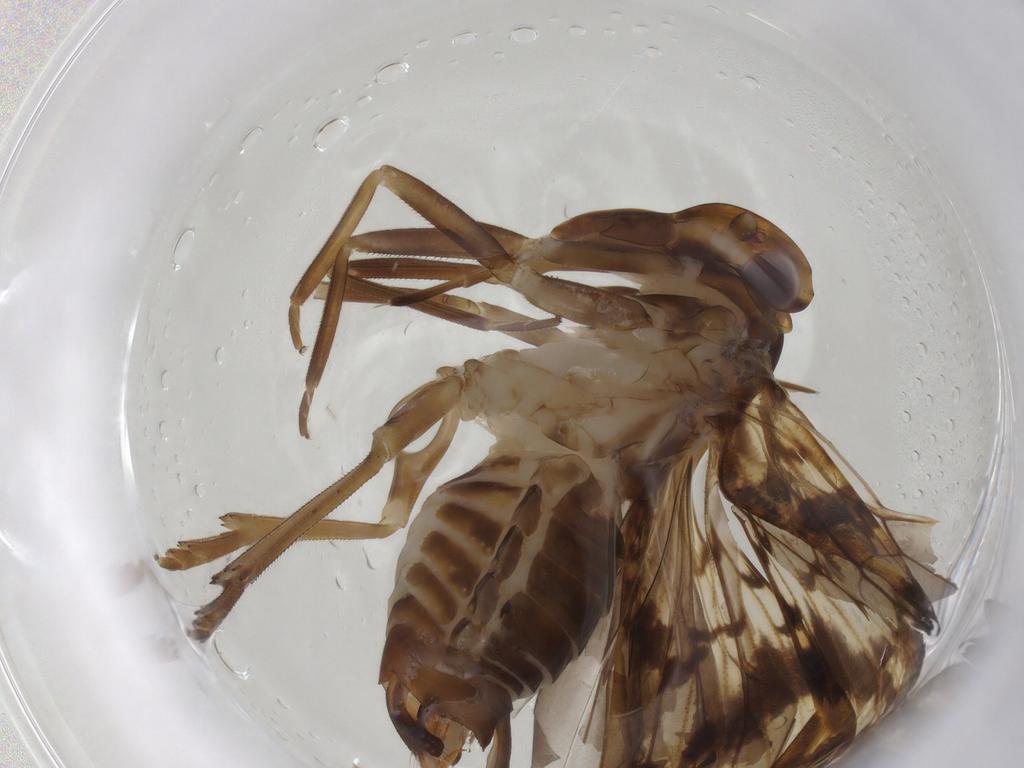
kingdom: Animalia
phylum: Arthropoda
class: Insecta
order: Hemiptera
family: Cixiidae
